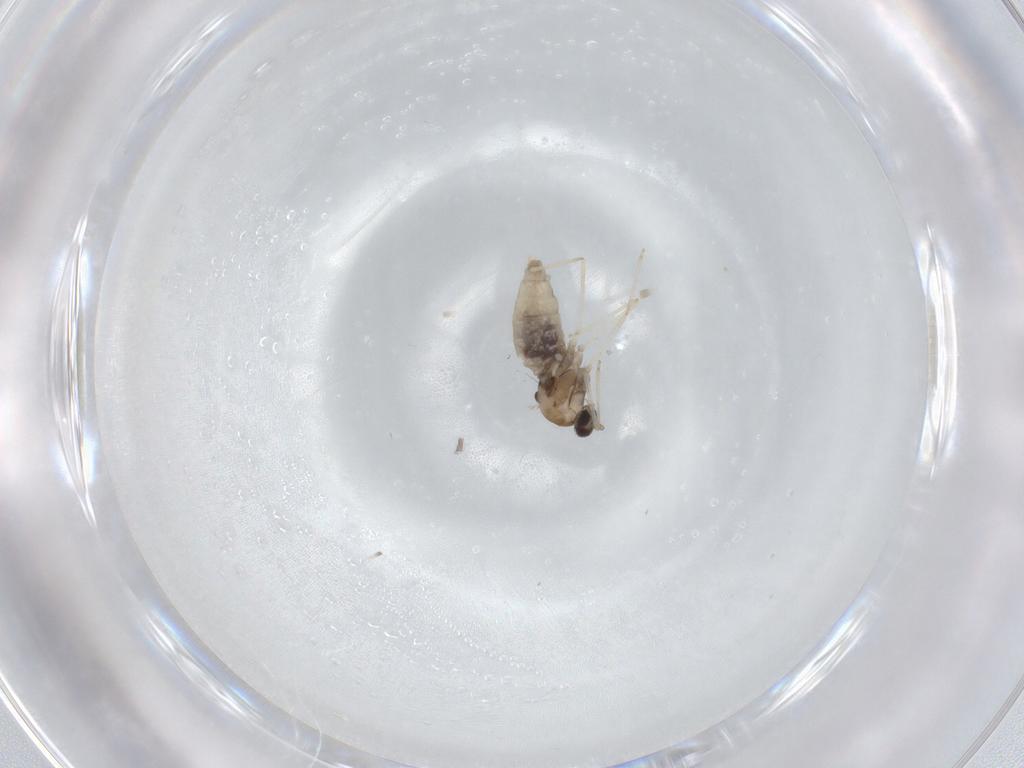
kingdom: Animalia
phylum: Arthropoda
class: Insecta
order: Diptera
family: Cecidomyiidae
